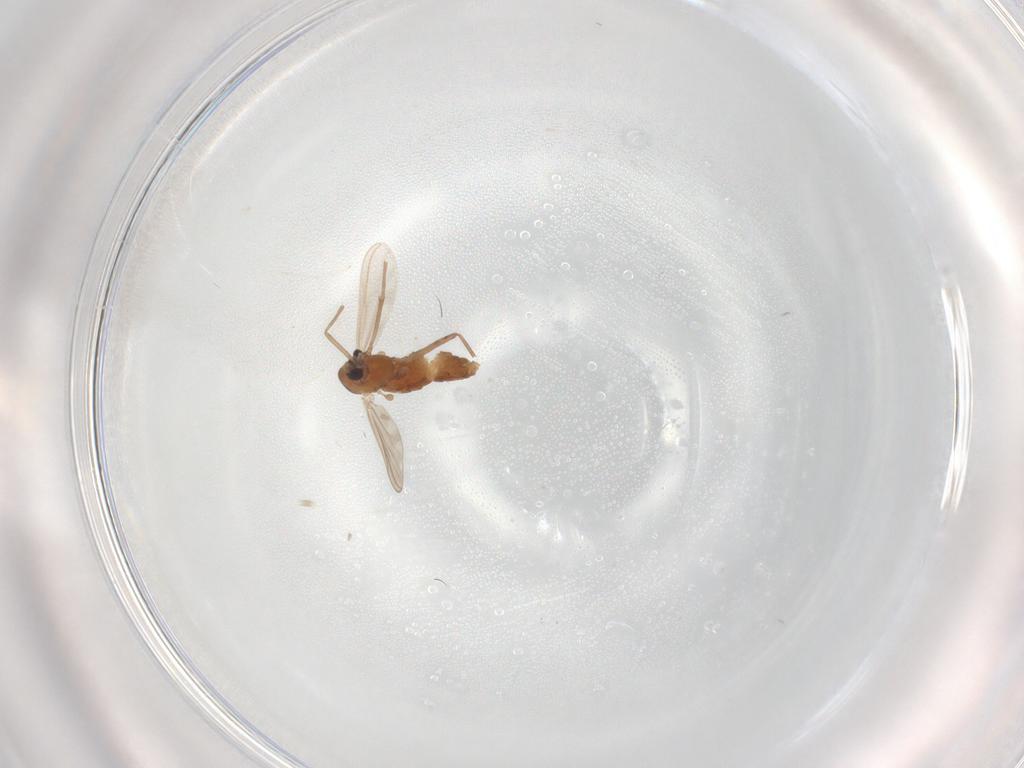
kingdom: Animalia
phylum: Arthropoda
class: Insecta
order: Diptera
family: Chironomidae
